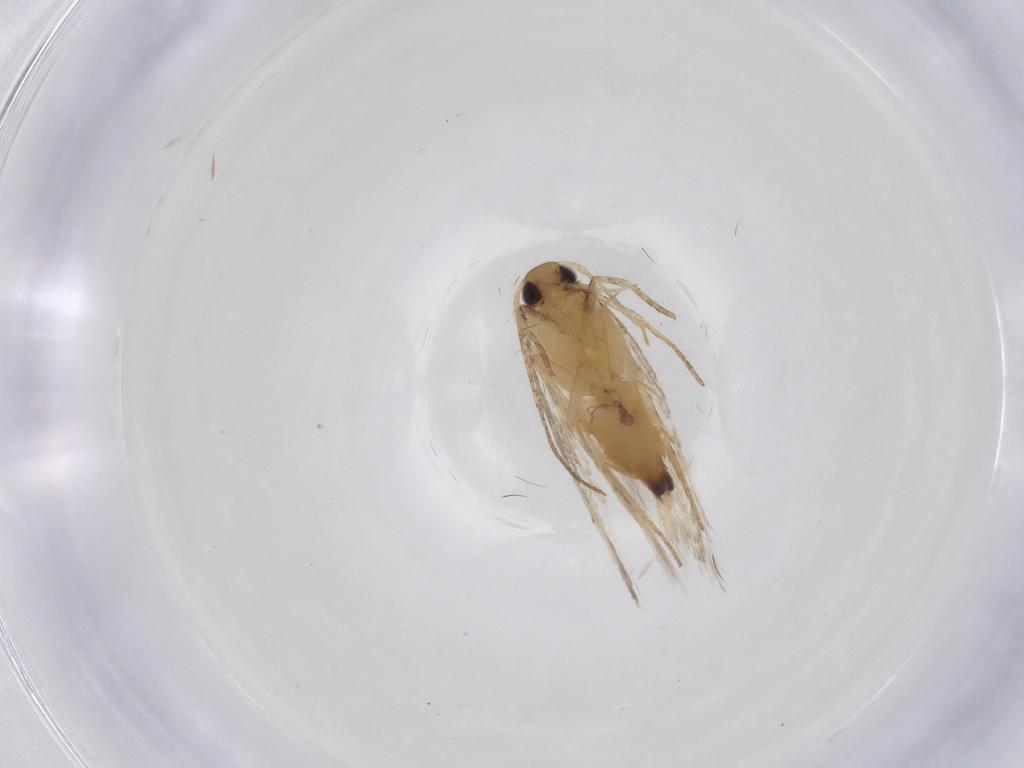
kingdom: Animalia
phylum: Arthropoda
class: Insecta
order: Lepidoptera
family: Gelechiidae
